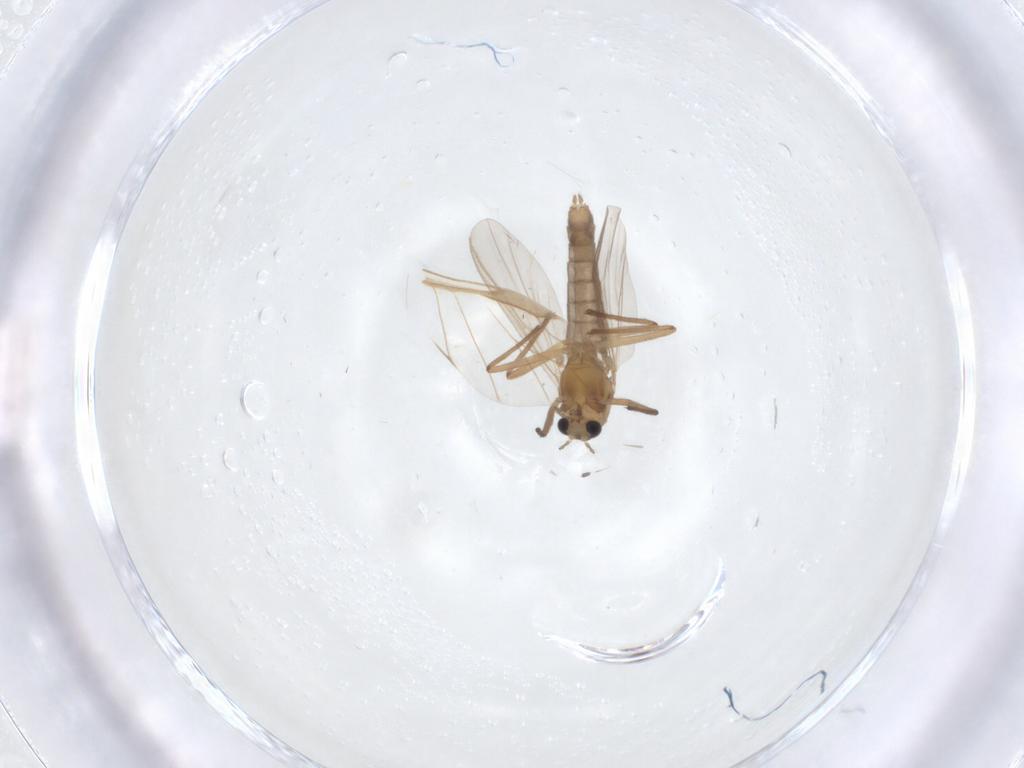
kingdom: Animalia
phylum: Arthropoda
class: Insecta
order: Diptera
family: Chironomidae
